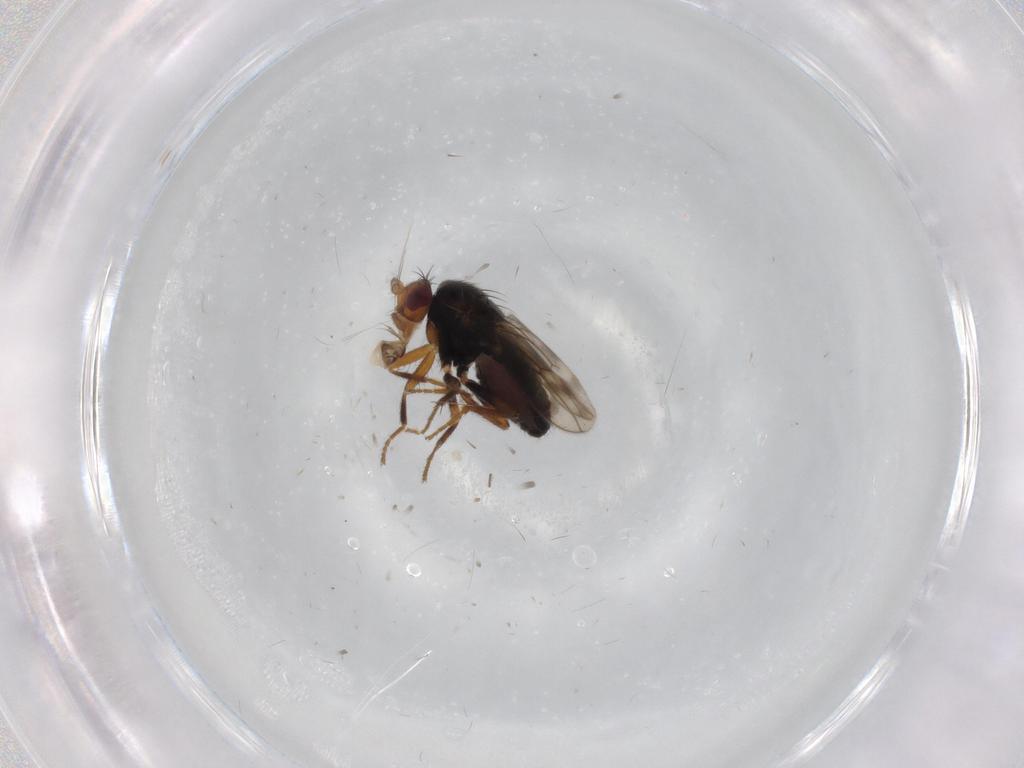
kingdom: Animalia
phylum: Arthropoda
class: Insecta
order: Diptera
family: Sphaeroceridae
